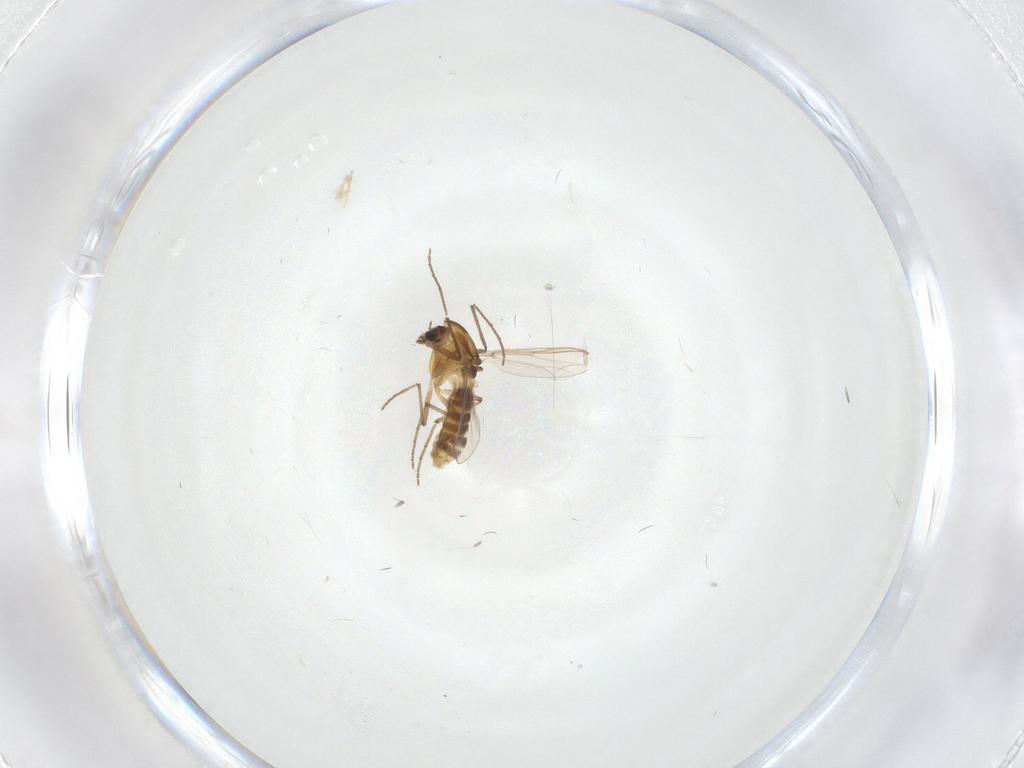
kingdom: Animalia
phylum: Arthropoda
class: Insecta
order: Diptera
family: Chironomidae
